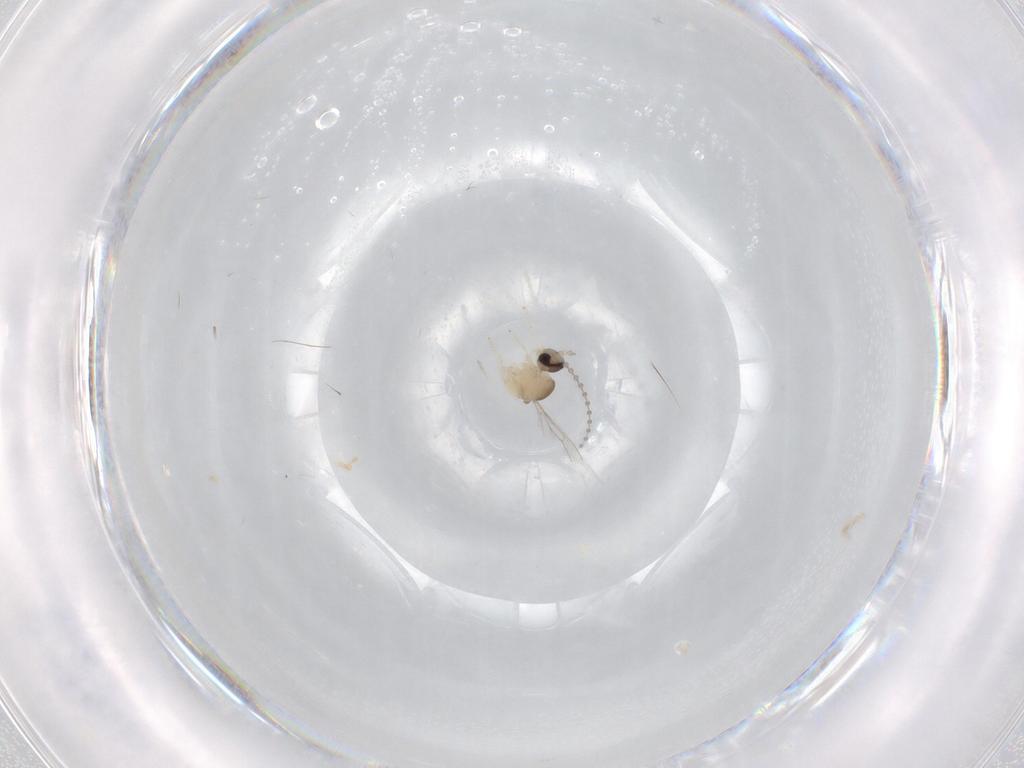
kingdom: Animalia
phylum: Arthropoda
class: Insecta
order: Diptera
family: Cecidomyiidae
